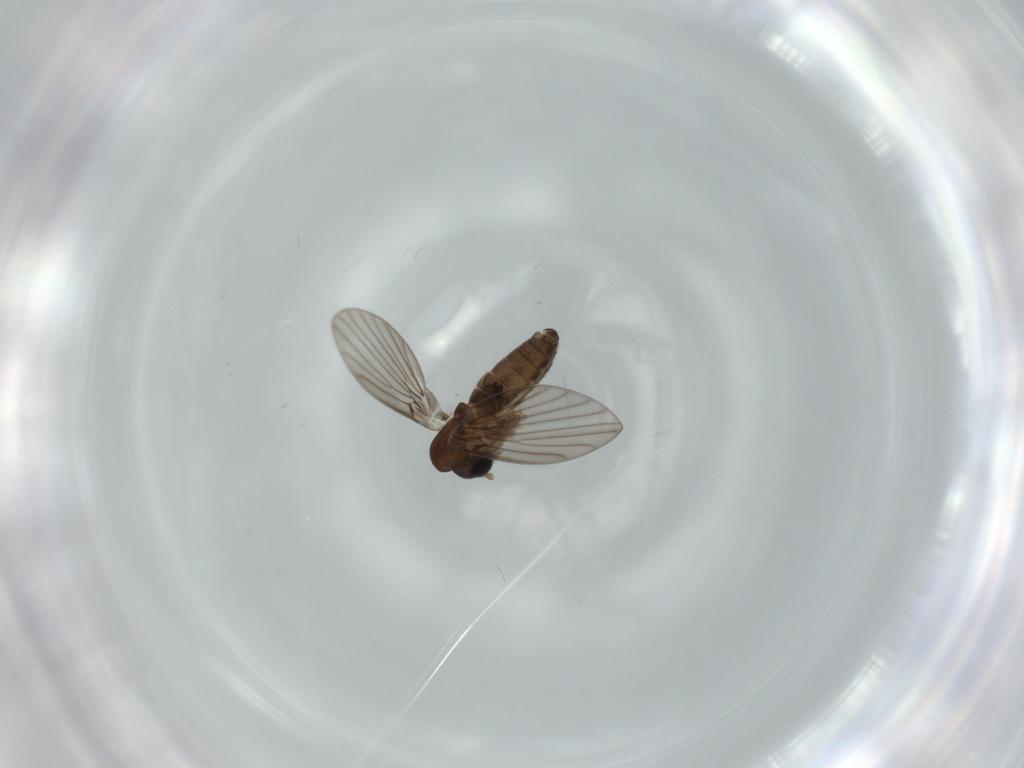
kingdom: Animalia
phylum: Arthropoda
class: Insecta
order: Diptera
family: Psychodidae
